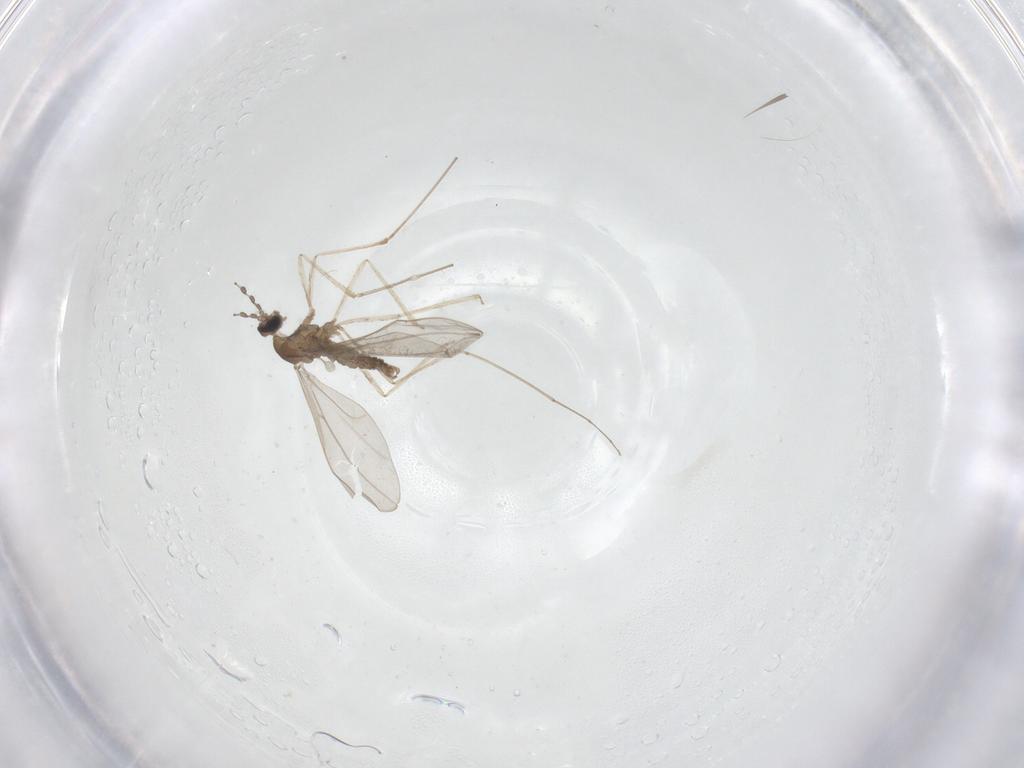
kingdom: Animalia
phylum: Arthropoda
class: Insecta
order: Diptera
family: Cecidomyiidae
